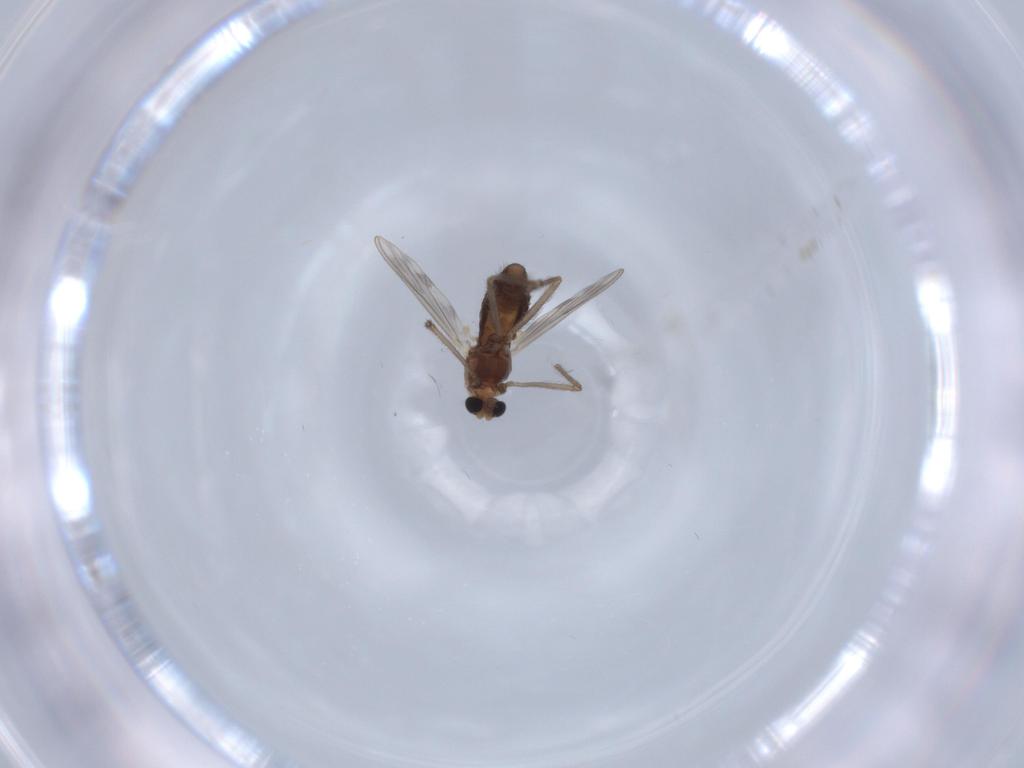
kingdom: Animalia
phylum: Arthropoda
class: Insecta
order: Diptera
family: Chironomidae
